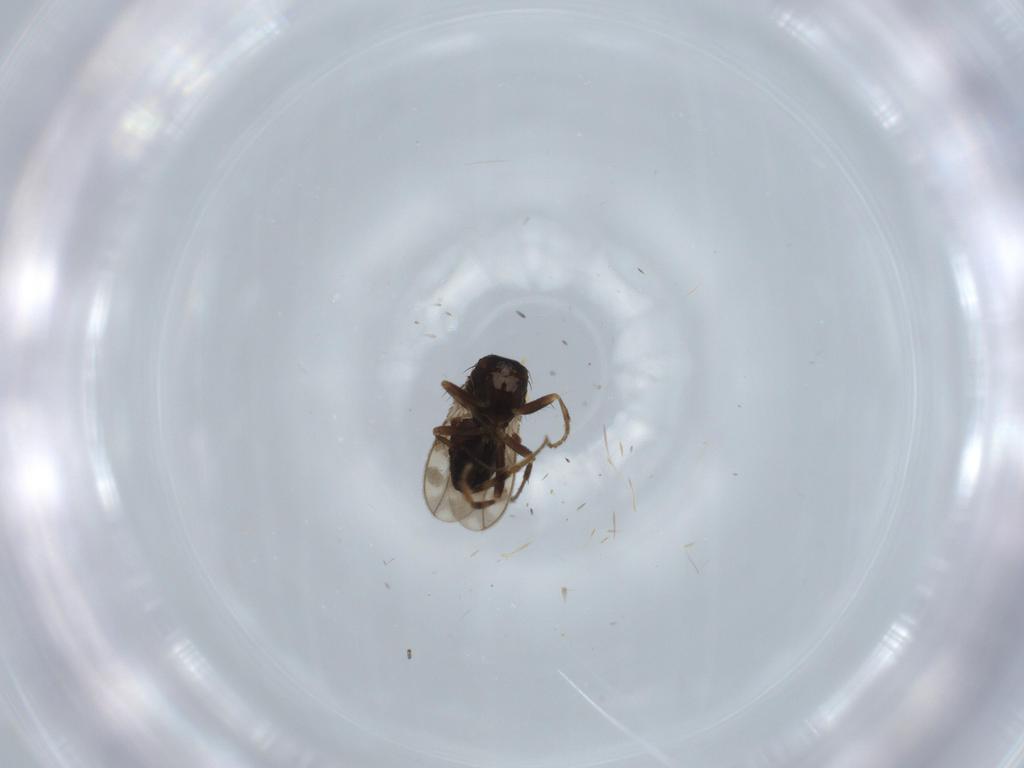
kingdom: Animalia
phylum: Arthropoda
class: Insecta
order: Diptera
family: Sphaeroceridae
